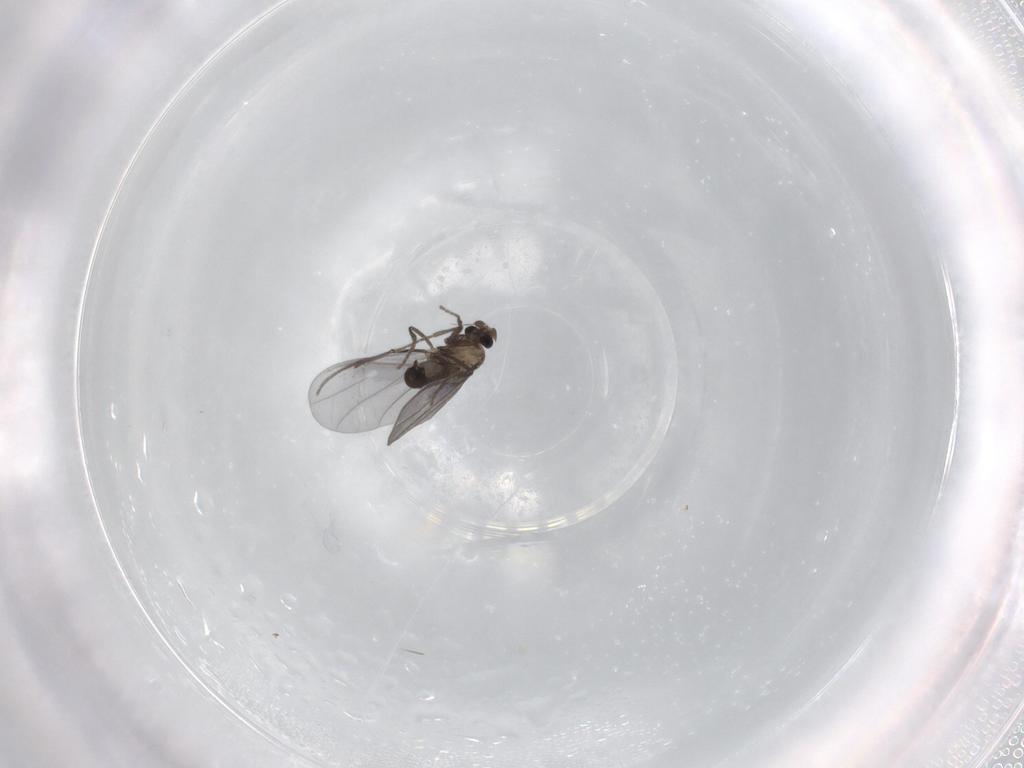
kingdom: Animalia
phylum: Arthropoda
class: Insecta
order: Diptera
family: Phoridae
